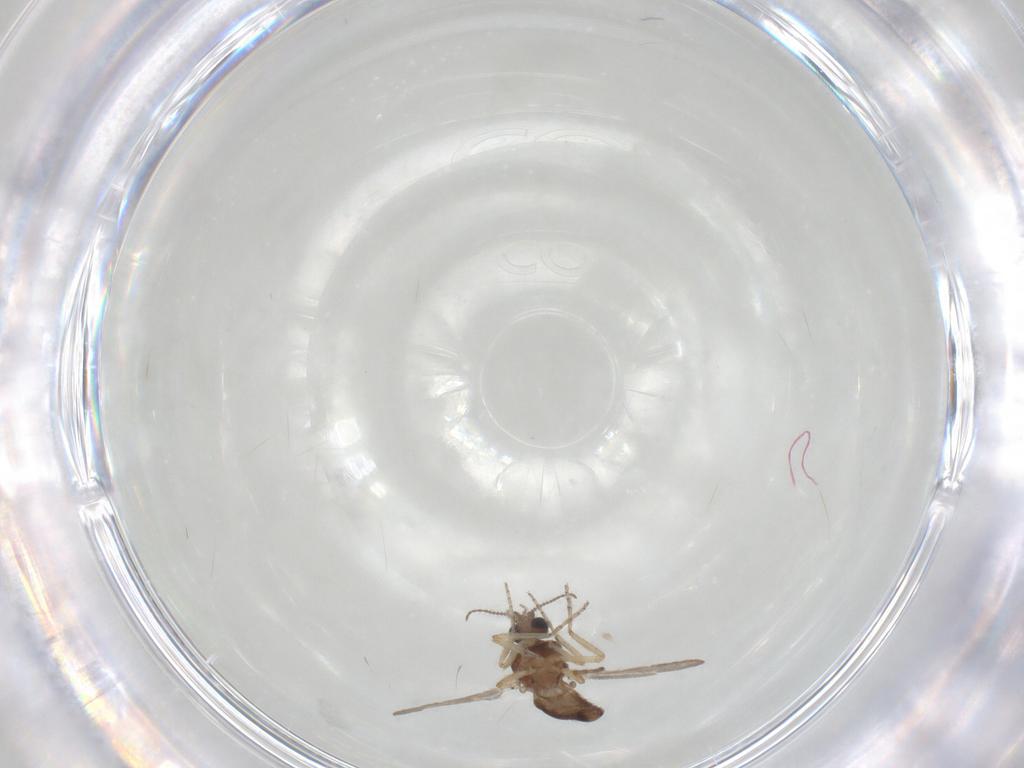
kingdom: Animalia
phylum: Arthropoda
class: Insecta
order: Diptera
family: Ceratopogonidae
